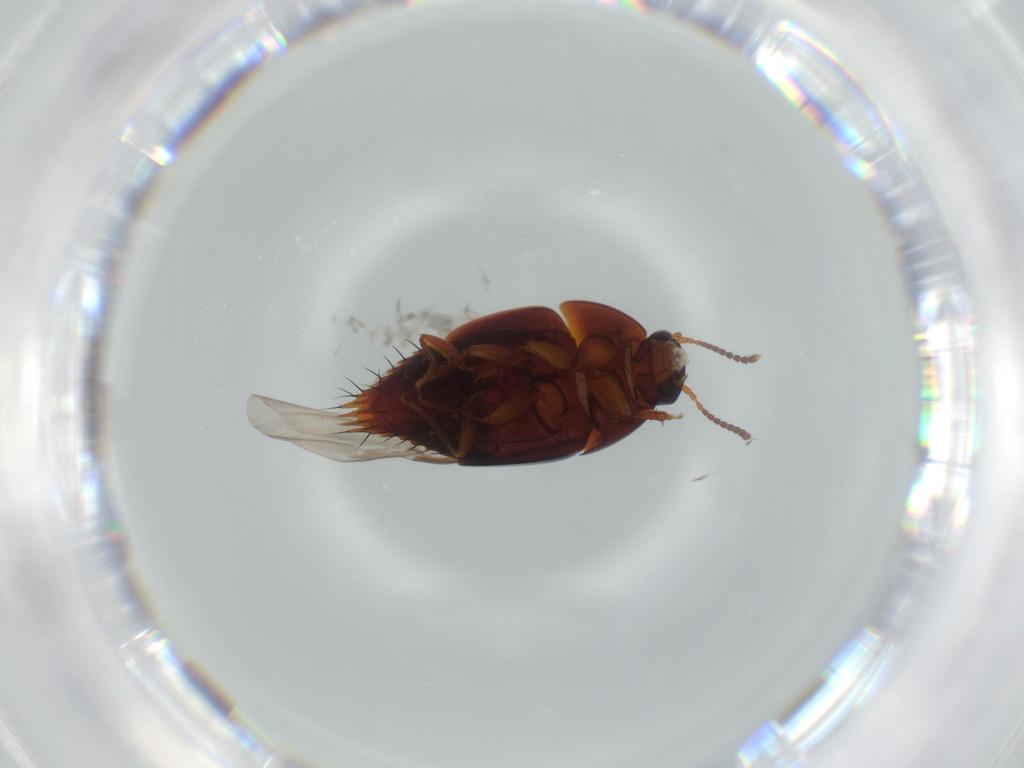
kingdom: Animalia
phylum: Arthropoda
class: Insecta
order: Coleoptera
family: Staphylinidae
